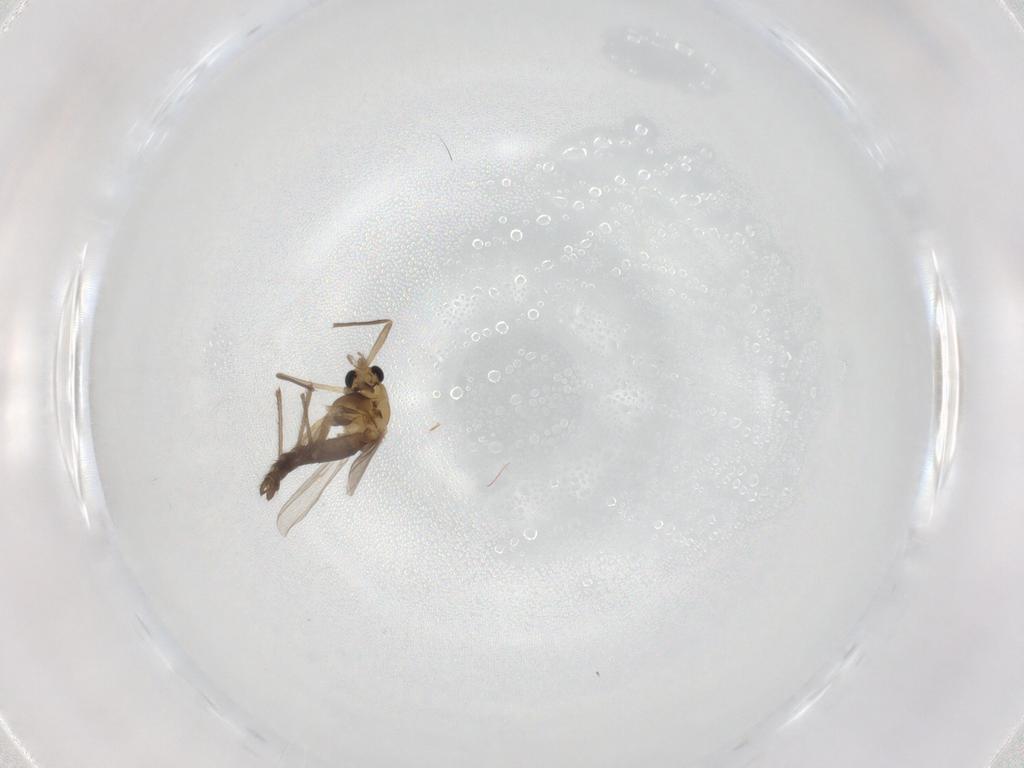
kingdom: Animalia
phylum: Arthropoda
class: Insecta
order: Diptera
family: Chironomidae
